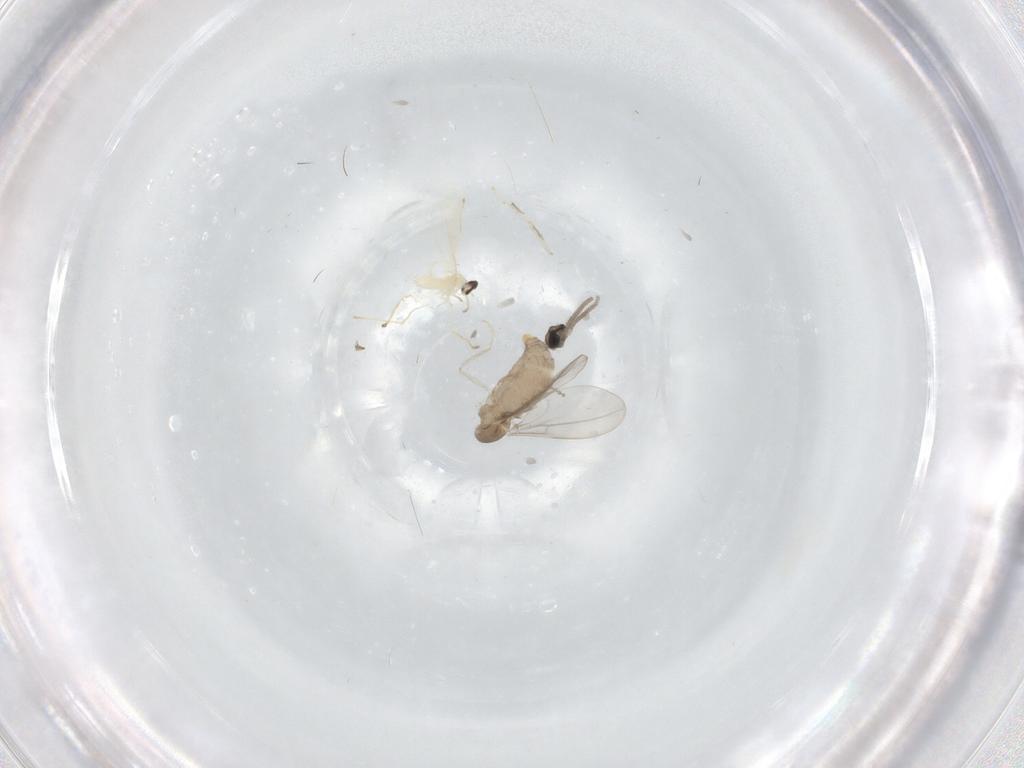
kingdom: Animalia
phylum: Arthropoda
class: Insecta
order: Diptera
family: Cecidomyiidae
